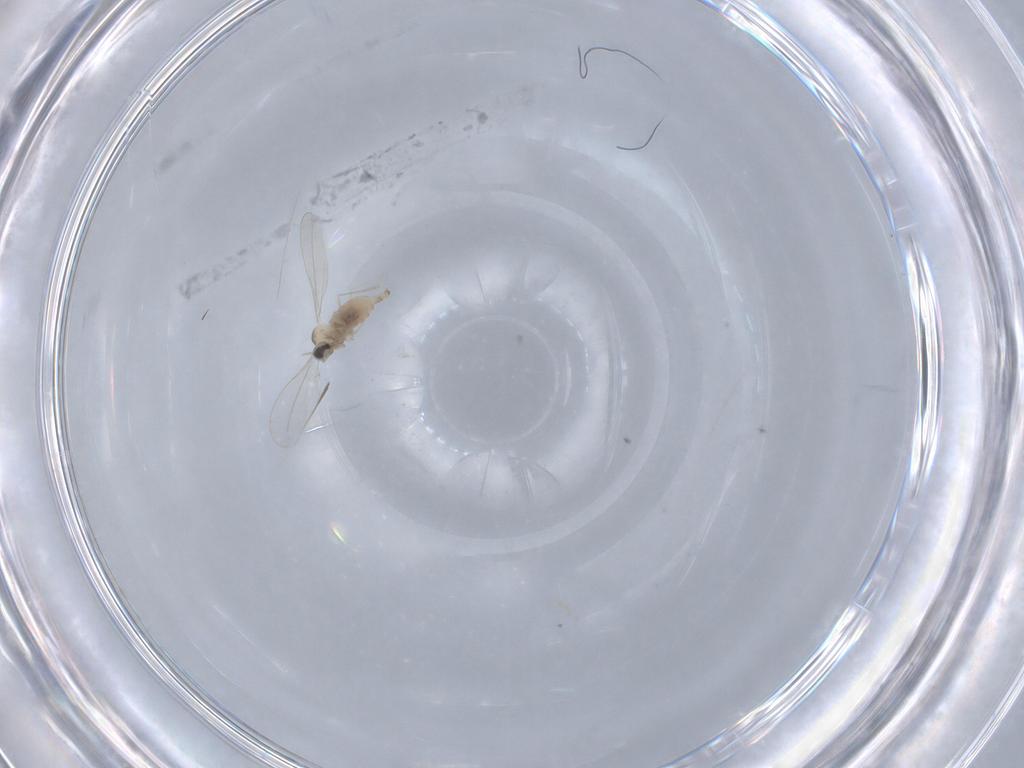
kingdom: Animalia
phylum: Arthropoda
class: Insecta
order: Diptera
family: Cecidomyiidae
